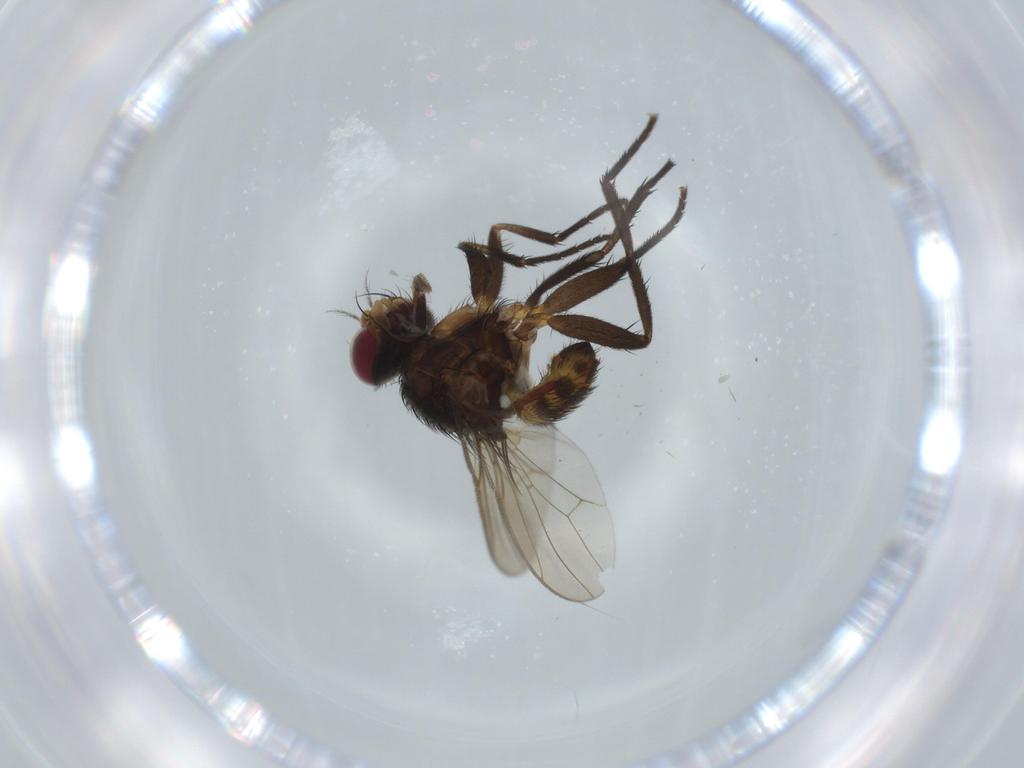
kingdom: Animalia
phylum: Arthropoda
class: Insecta
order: Diptera
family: Anthomyiidae
